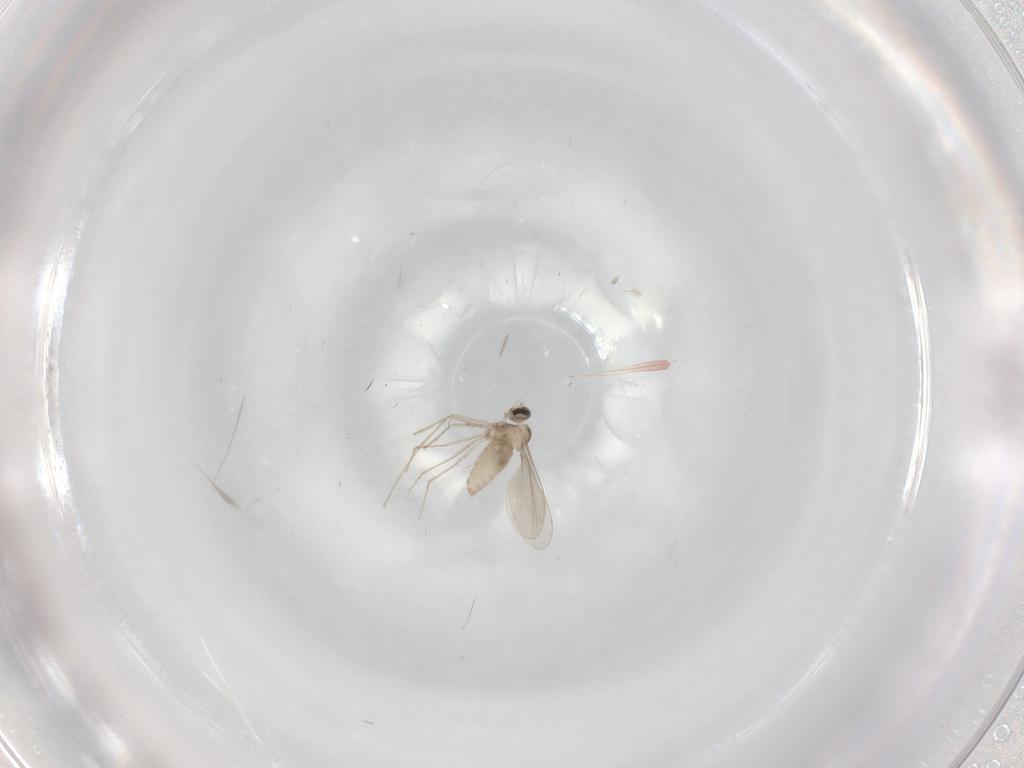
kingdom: Animalia
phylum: Arthropoda
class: Insecta
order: Diptera
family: Cecidomyiidae
